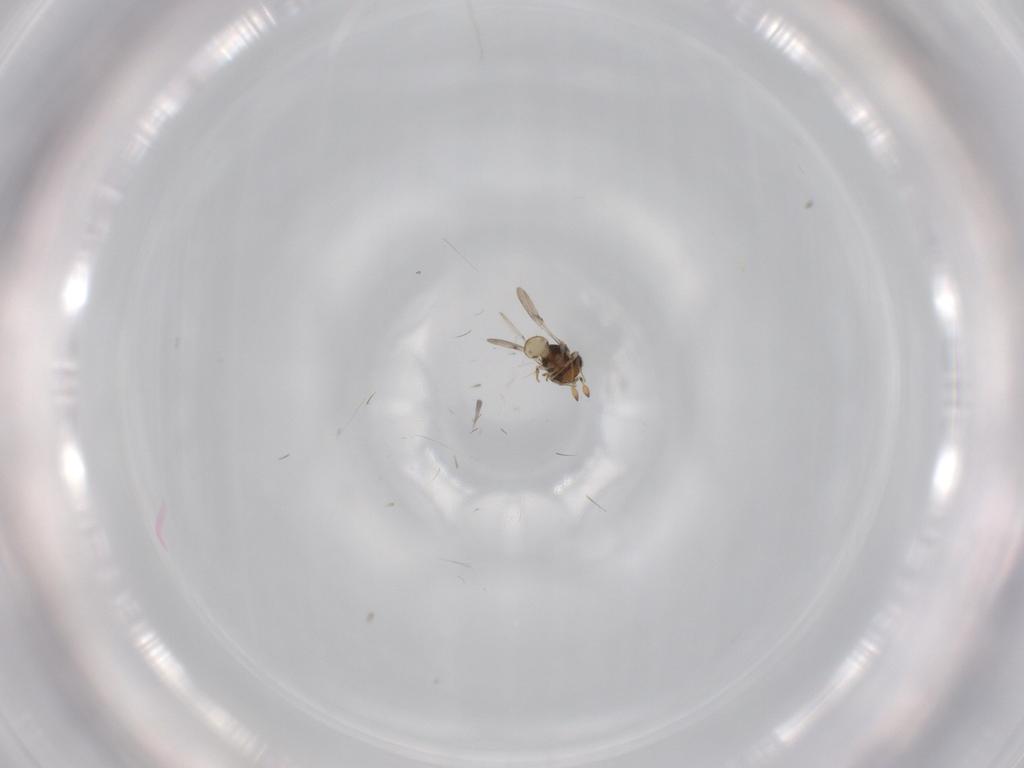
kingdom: Animalia
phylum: Arthropoda
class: Insecta
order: Hymenoptera
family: Scelionidae
